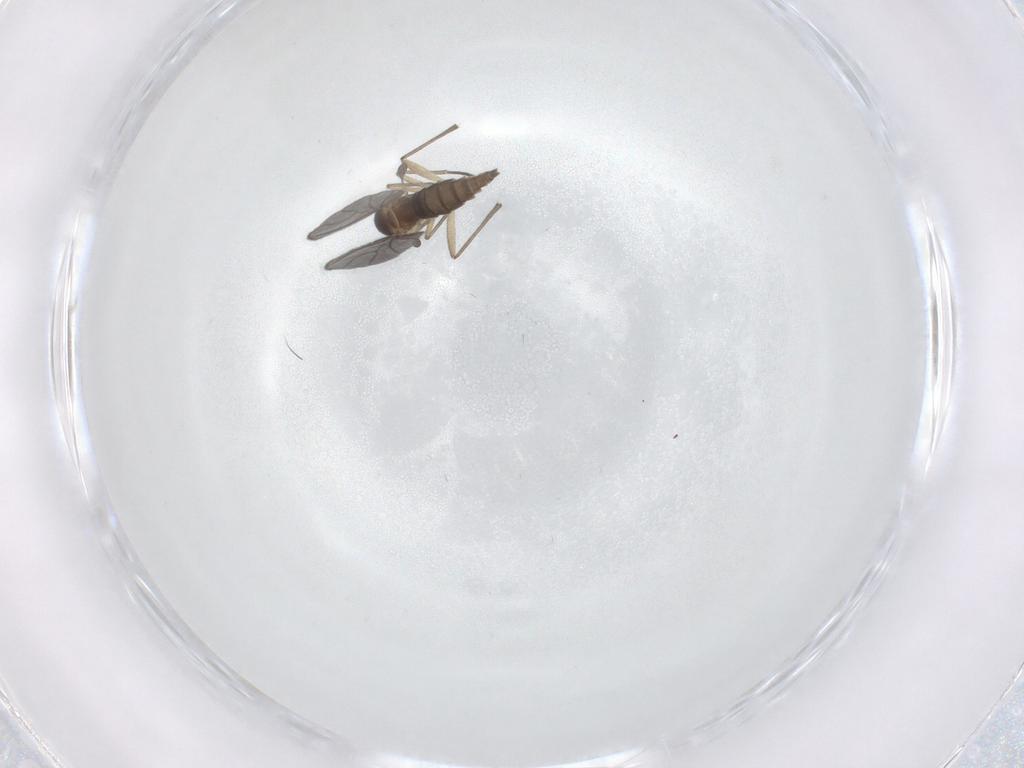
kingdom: Animalia
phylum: Arthropoda
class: Insecta
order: Diptera
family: Sciaridae
